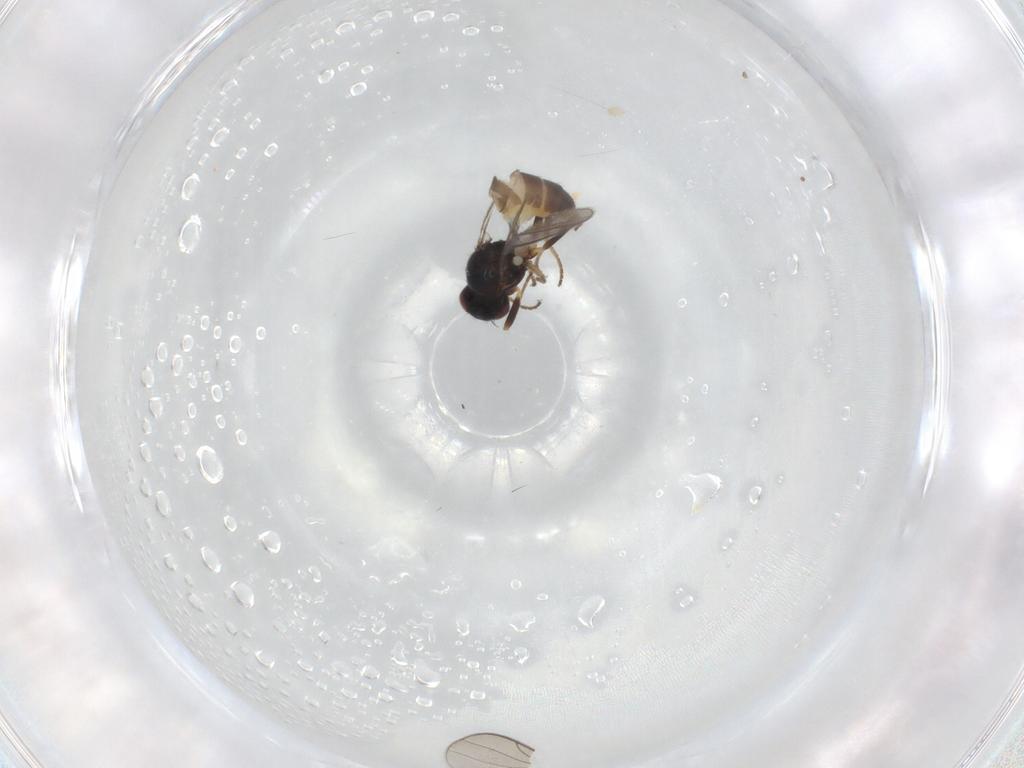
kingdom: Animalia
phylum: Arthropoda
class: Insecta
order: Diptera
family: Chloropidae
